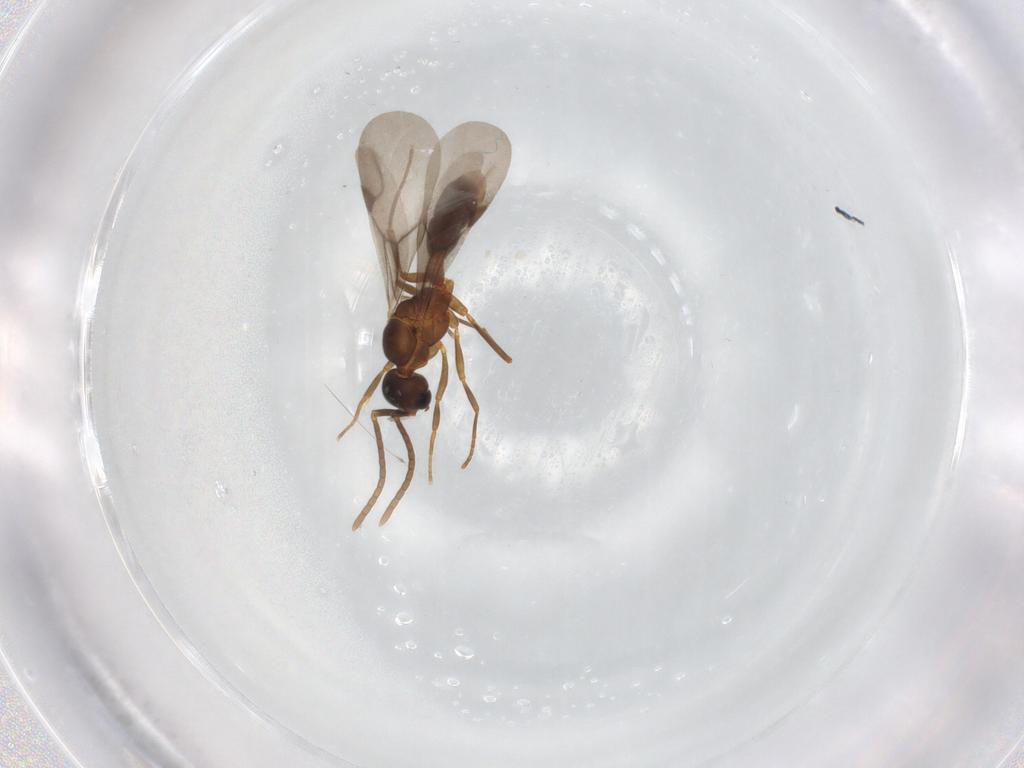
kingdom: Animalia
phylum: Arthropoda
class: Insecta
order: Hymenoptera
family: Formicidae
